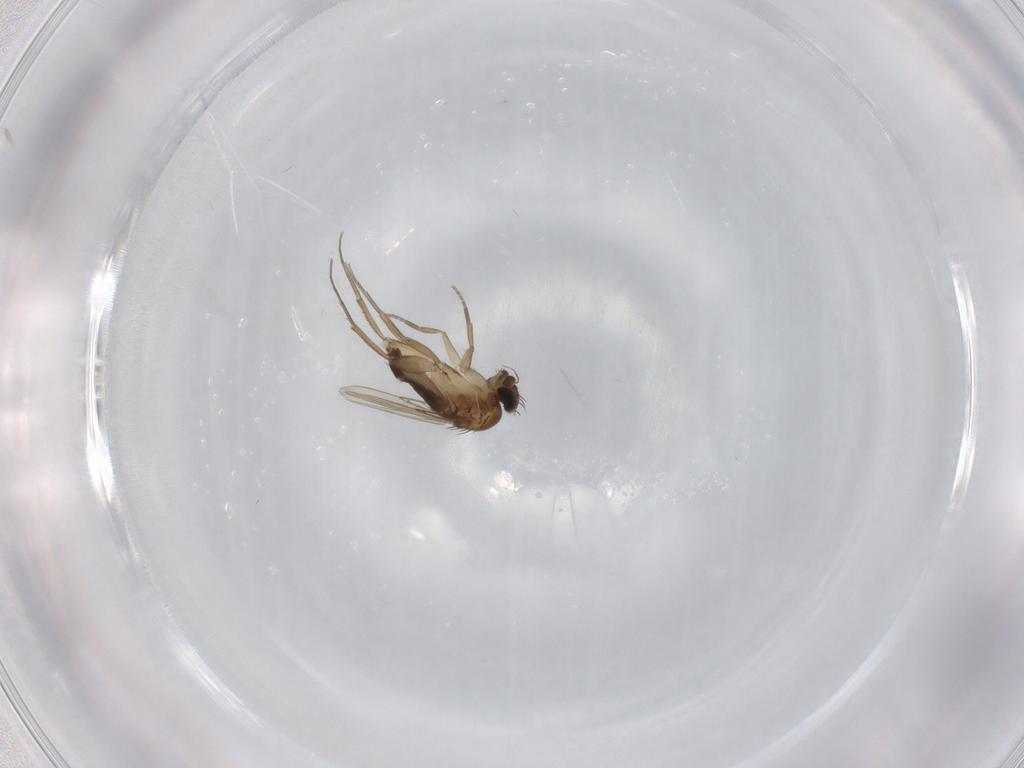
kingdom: Animalia
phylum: Arthropoda
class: Insecta
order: Diptera
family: Phoridae
